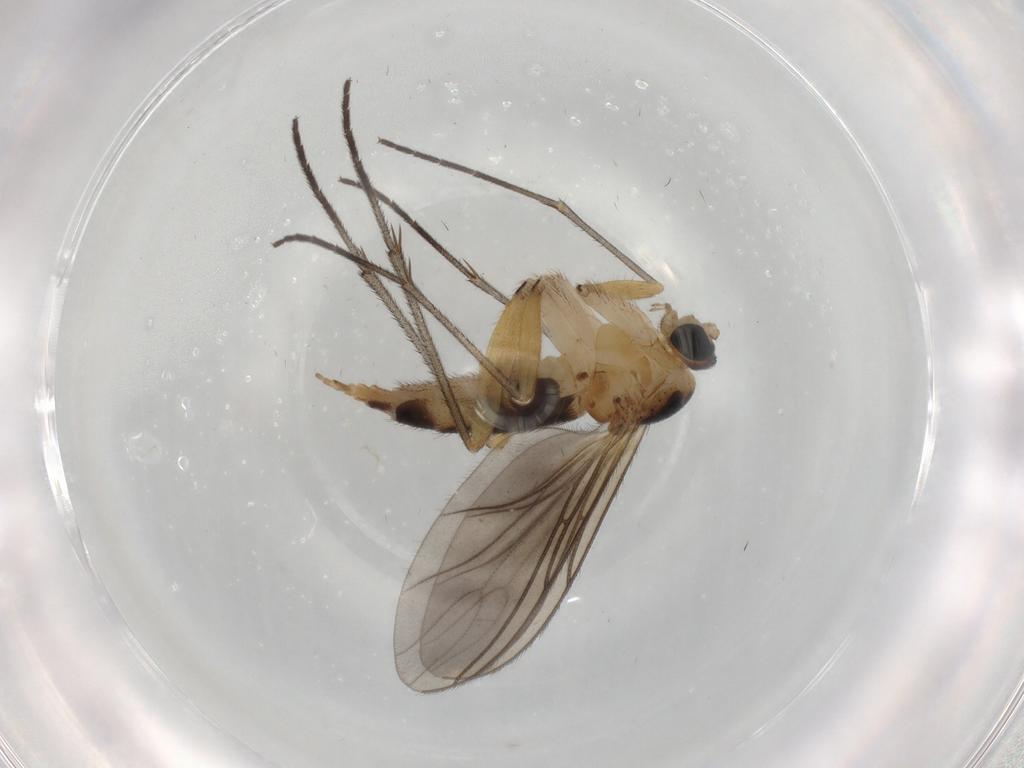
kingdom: Animalia
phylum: Arthropoda
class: Insecta
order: Diptera
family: Sciaridae
